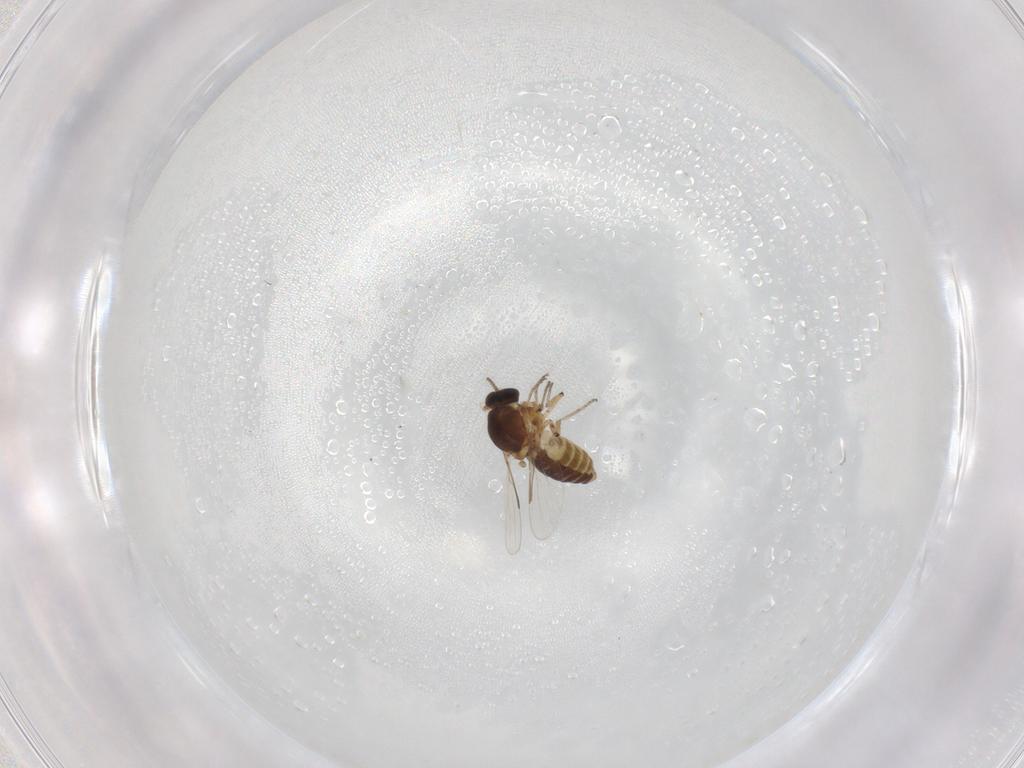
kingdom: Animalia
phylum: Arthropoda
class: Insecta
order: Diptera
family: Ceratopogonidae
